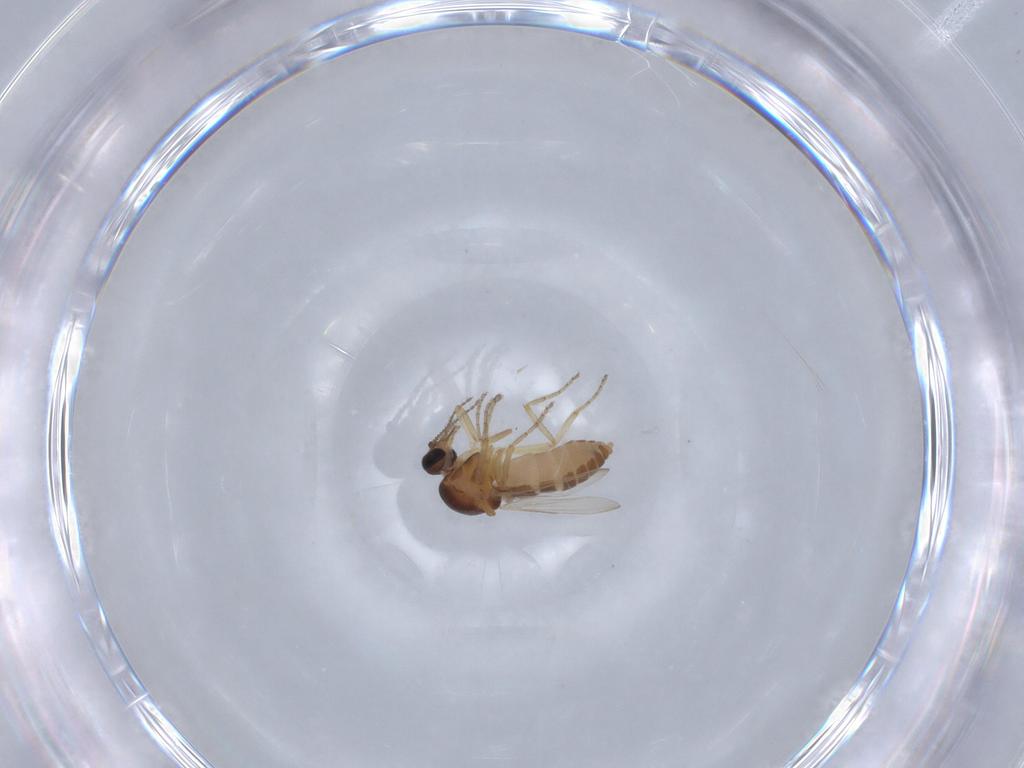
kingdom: Animalia
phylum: Arthropoda
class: Insecta
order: Diptera
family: Ceratopogonidae
